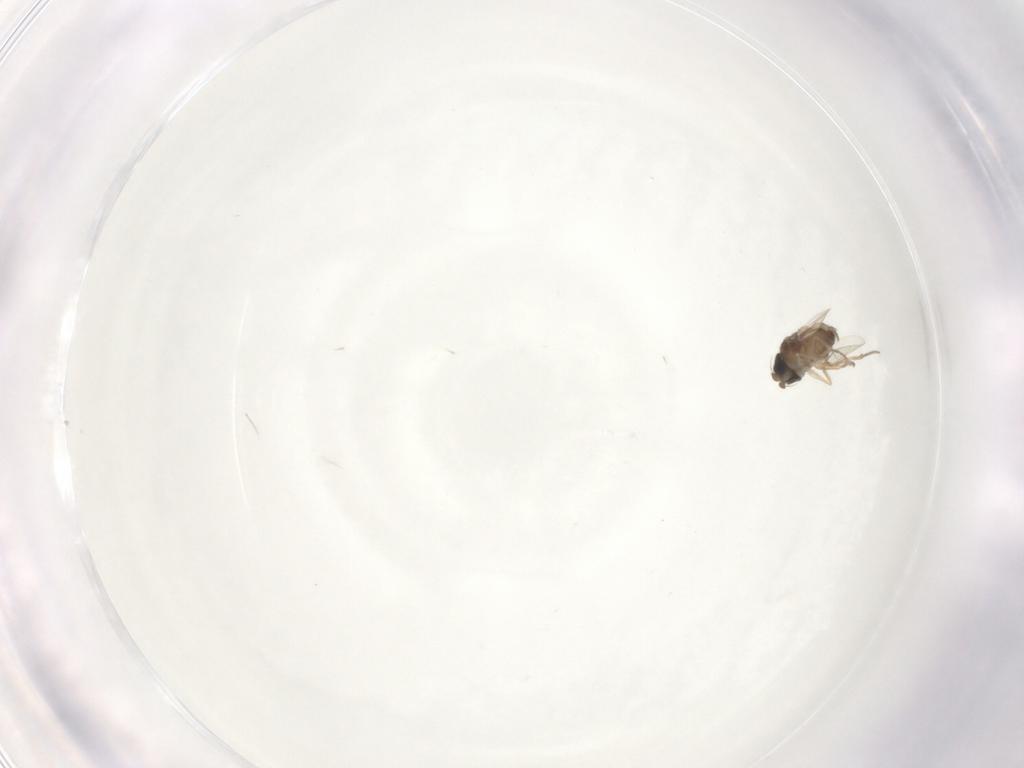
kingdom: Animalia
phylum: Arthropoda
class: Insecta
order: Diptera
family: Phoridae
